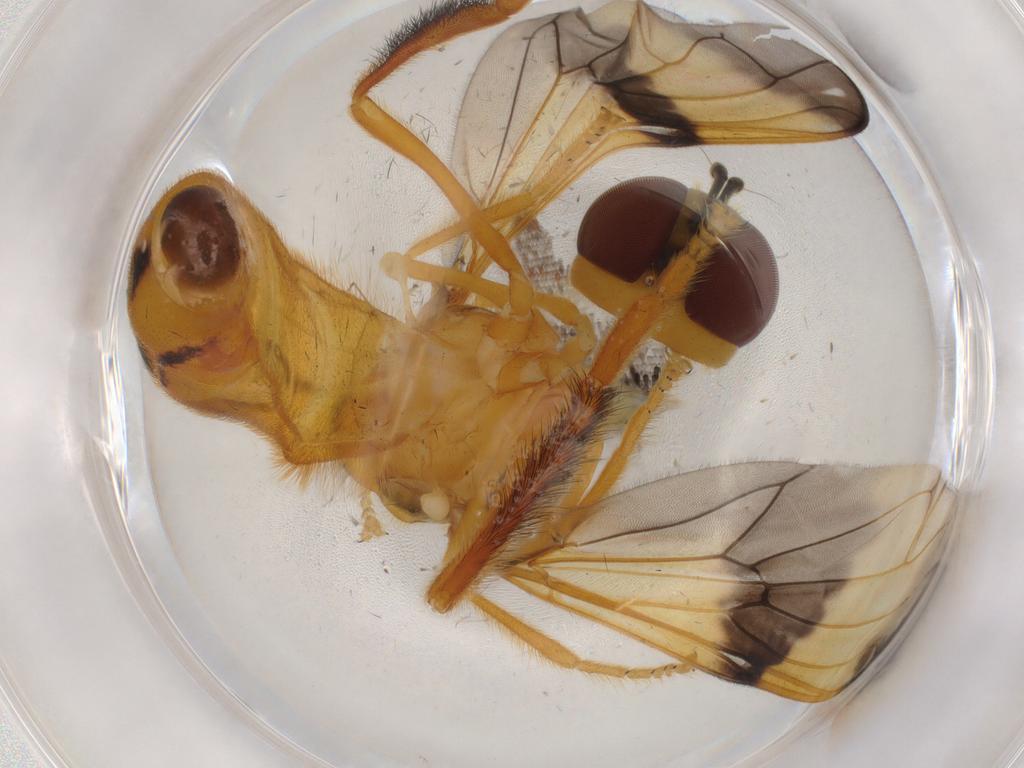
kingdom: Animalia
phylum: Arthropoda
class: Insecta
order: Diptera
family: Syrphidae
